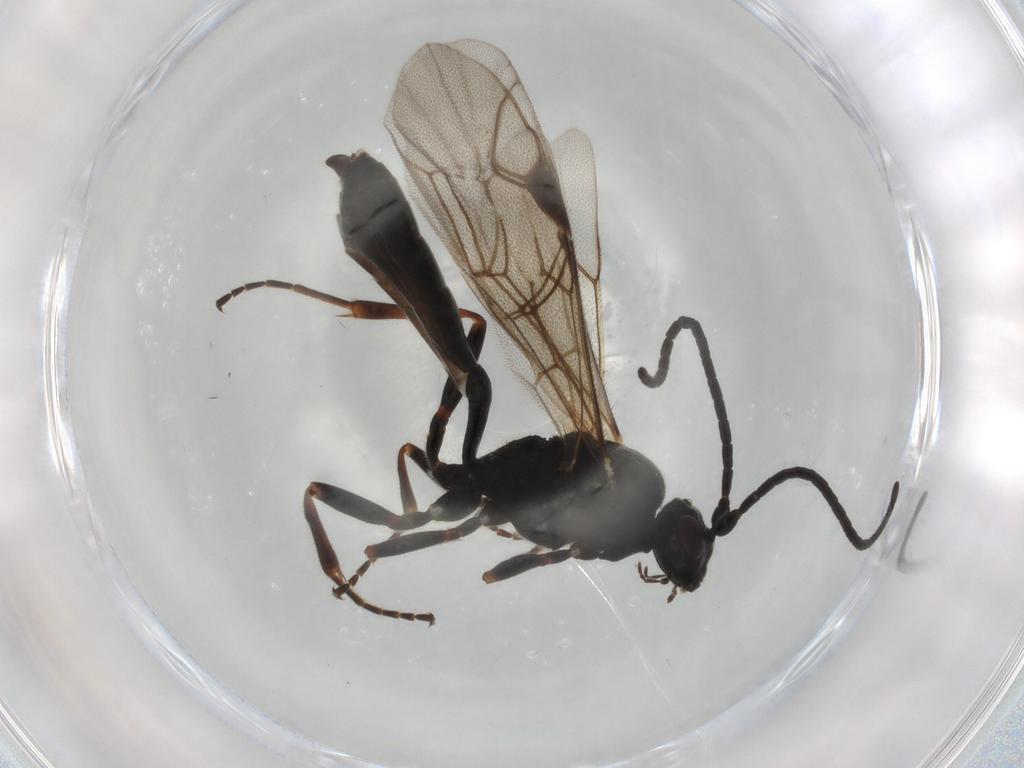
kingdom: Animalia
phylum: Arthropoda
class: Insecta
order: Hymenoptera
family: Ichneumonidae
